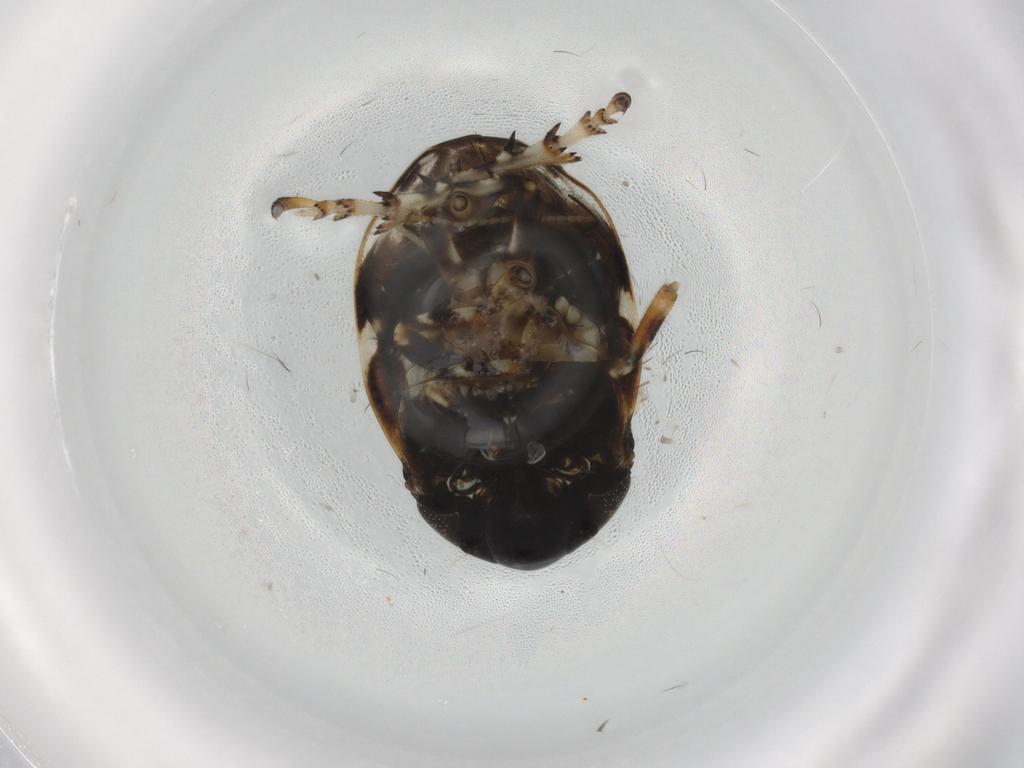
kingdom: Animalia
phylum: Arthropoda
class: Insecta
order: Hemiptera
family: Clastopteridae
